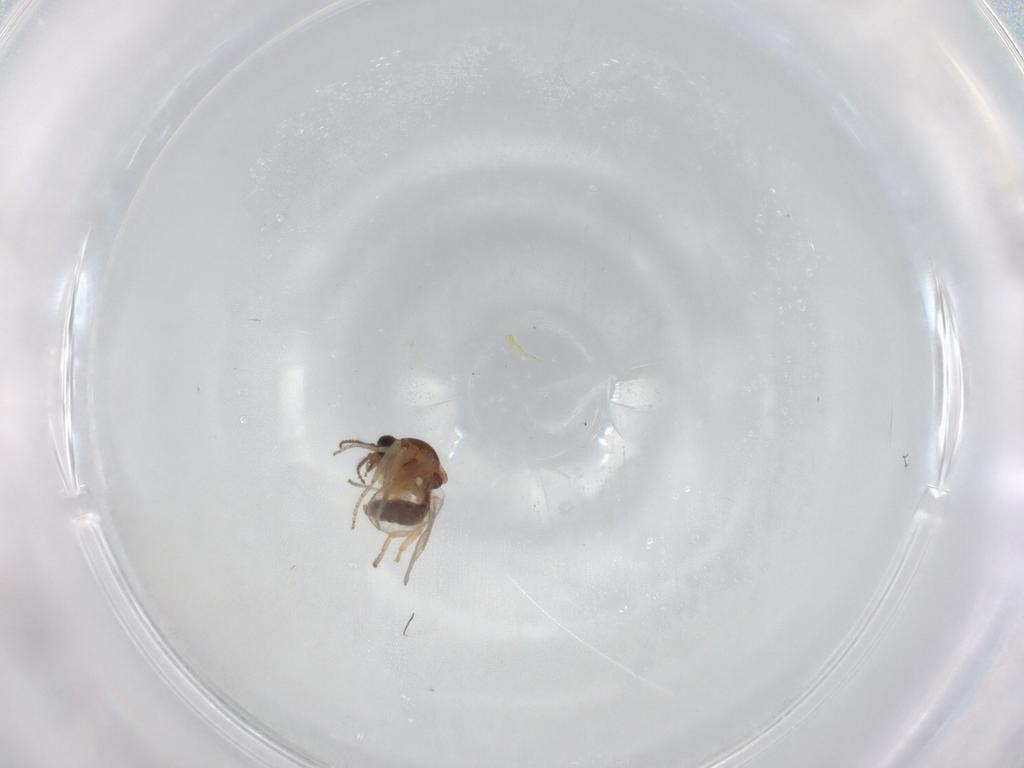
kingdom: Animalia
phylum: Arthropoda
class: Insecta
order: Diptera
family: Ceratopogonidae
